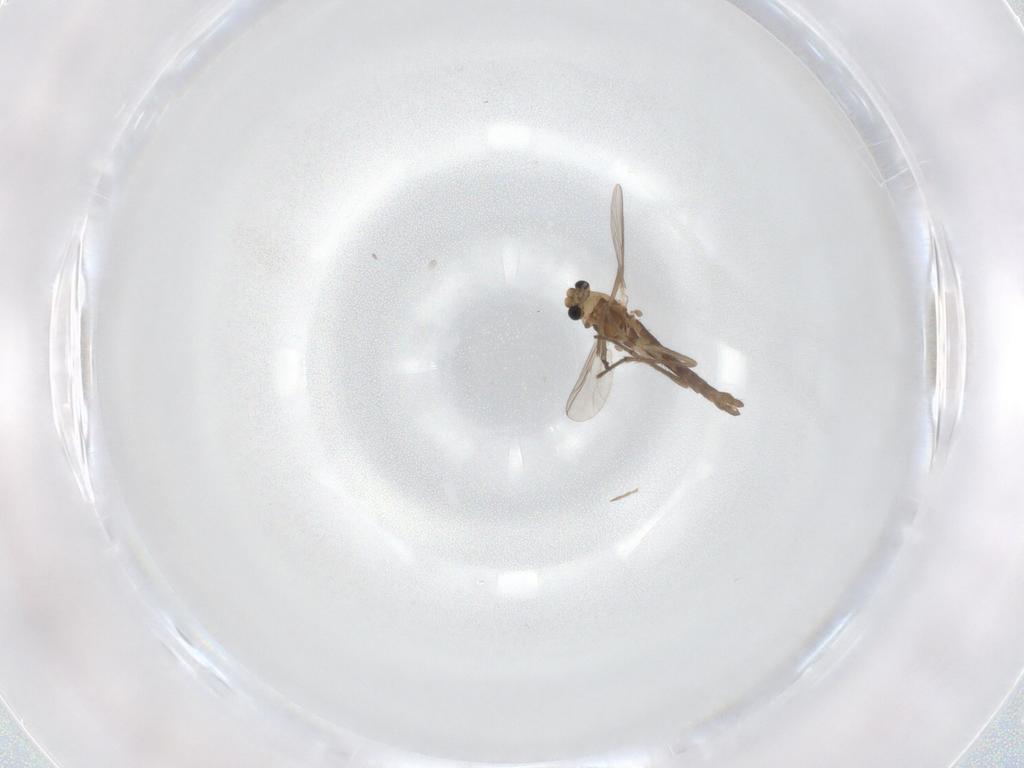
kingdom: Animalia
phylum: Arthropoda
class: Insecta
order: Diptera
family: Chironomidae
